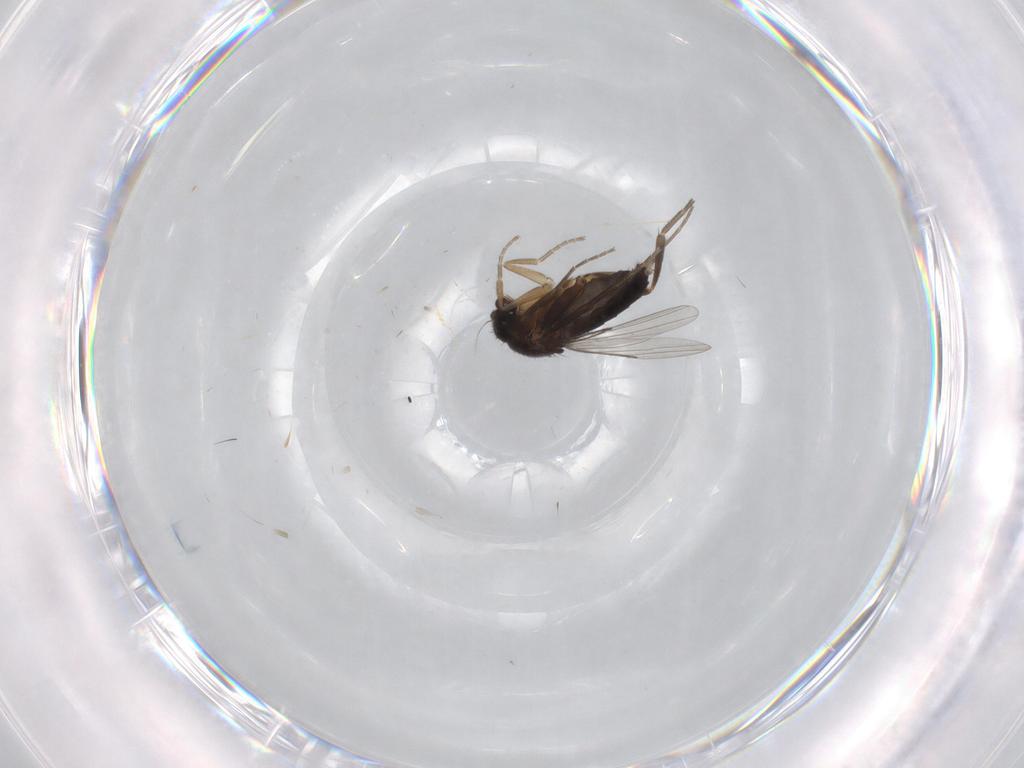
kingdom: Animalia
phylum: Arthropoda
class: Insecta
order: Diptera
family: Phoridae
